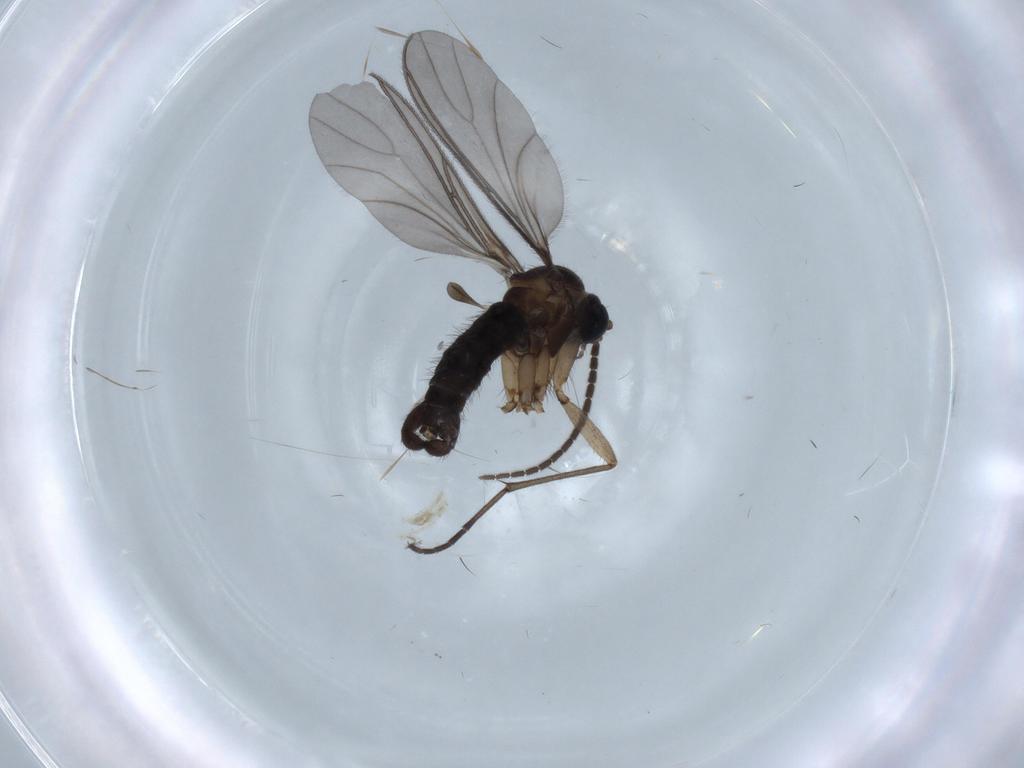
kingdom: Animalia
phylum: Arthropoda
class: Insecta
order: Diptera
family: Sciaridae
